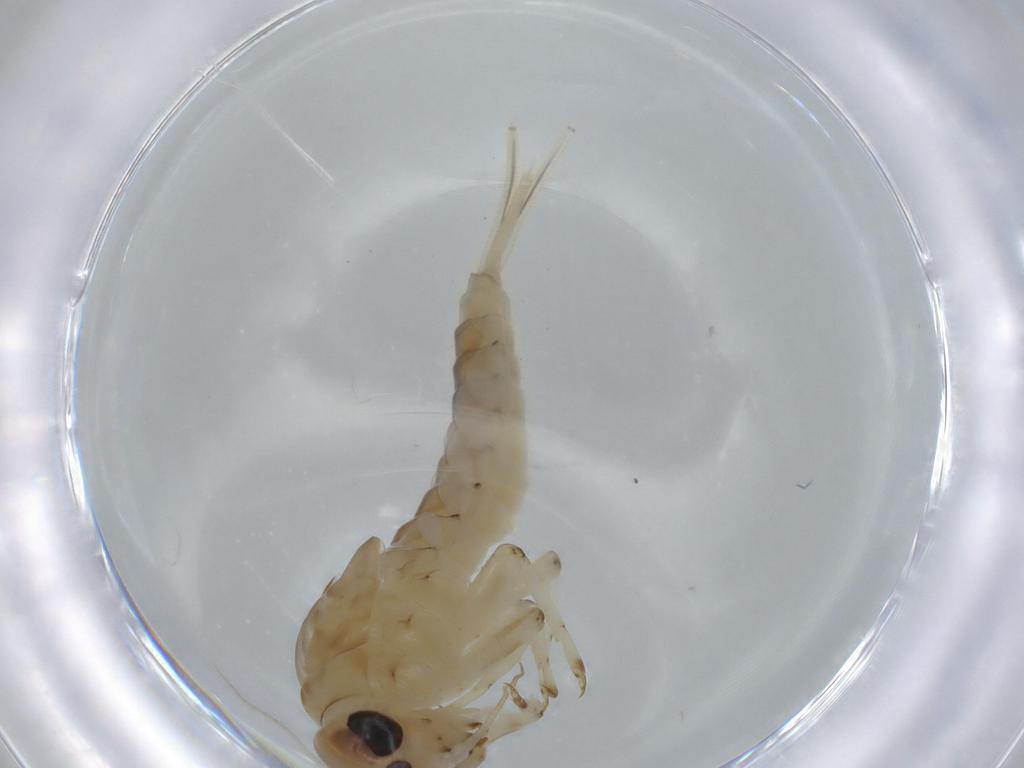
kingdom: Animalia
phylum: Arthropoda
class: Insecta
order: Ephemeroptera
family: Baetidae
